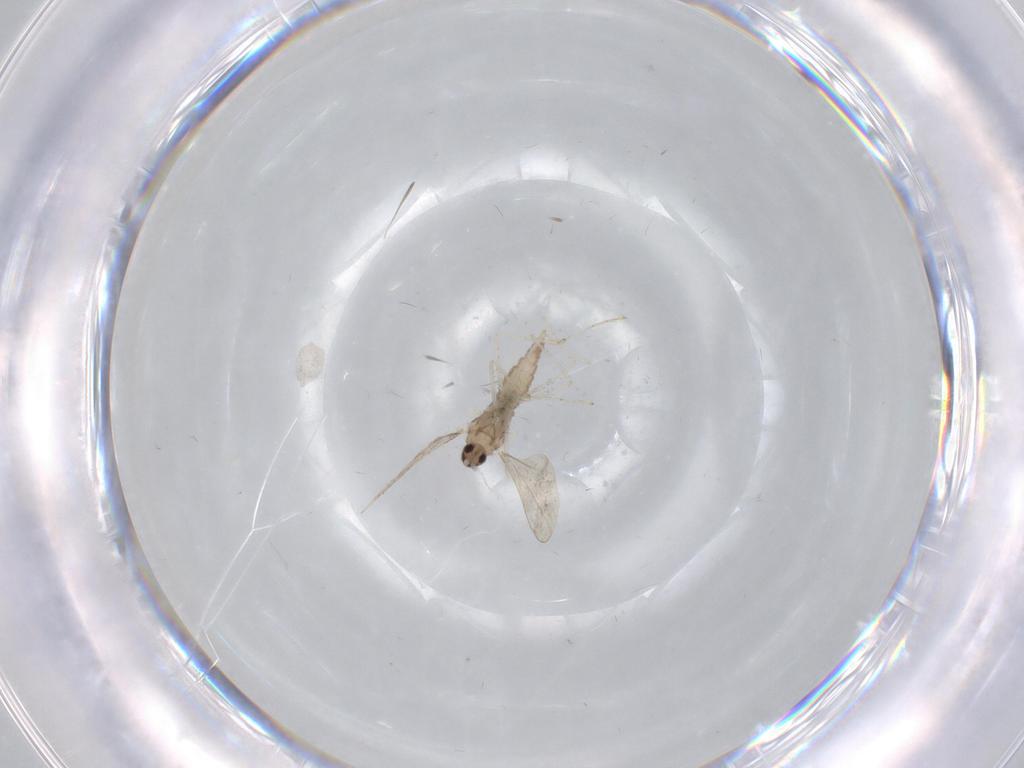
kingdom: Animalia
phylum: Arthropoda
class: Insecta
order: Diptera
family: Cecidomyiidae
